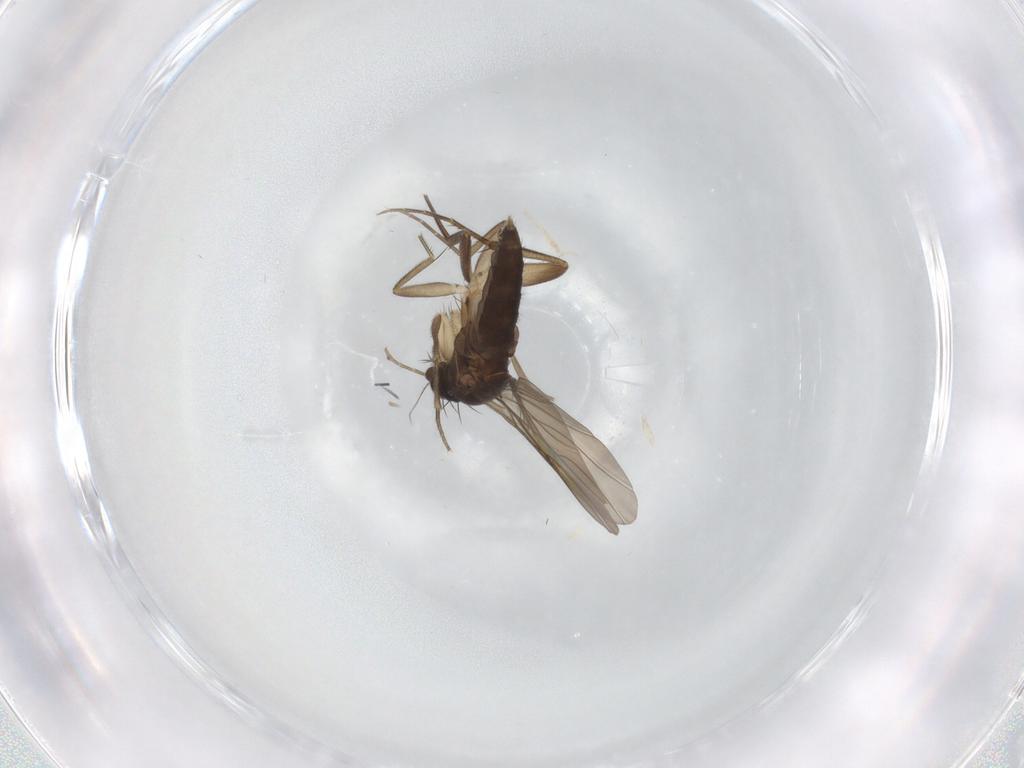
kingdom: Animalia
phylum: Arthropoda
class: Insecta
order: Diptera
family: Phoridae
